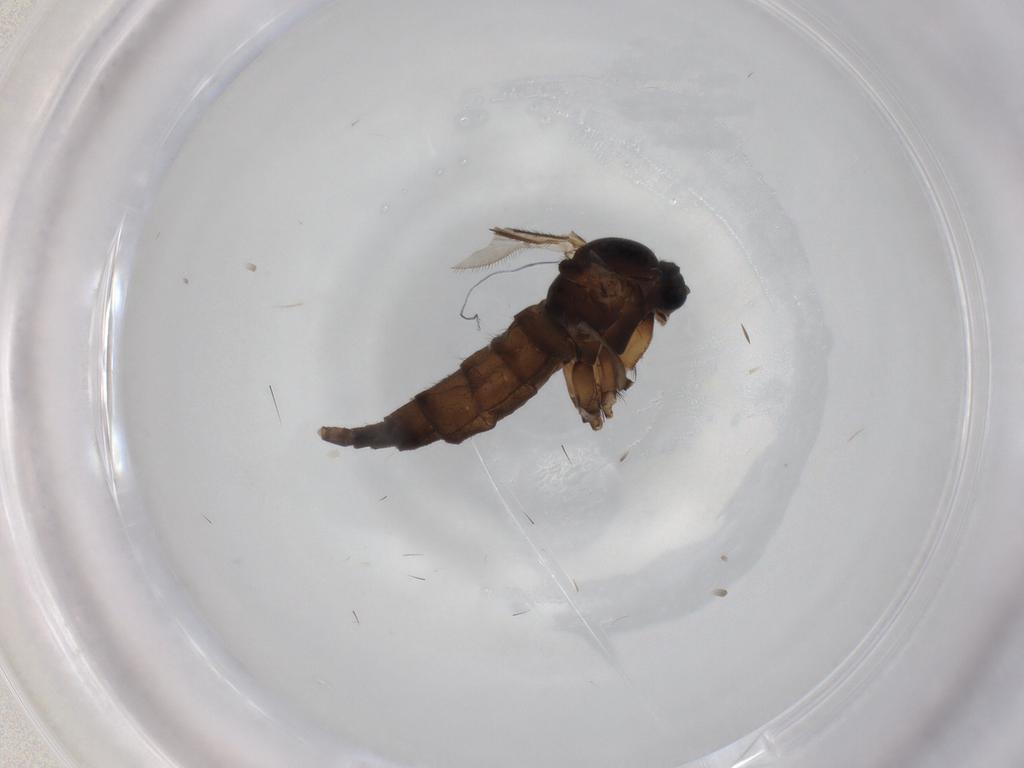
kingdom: Animalia
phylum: Arthropoda
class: Insecta
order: Diptera
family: Sciaridae
